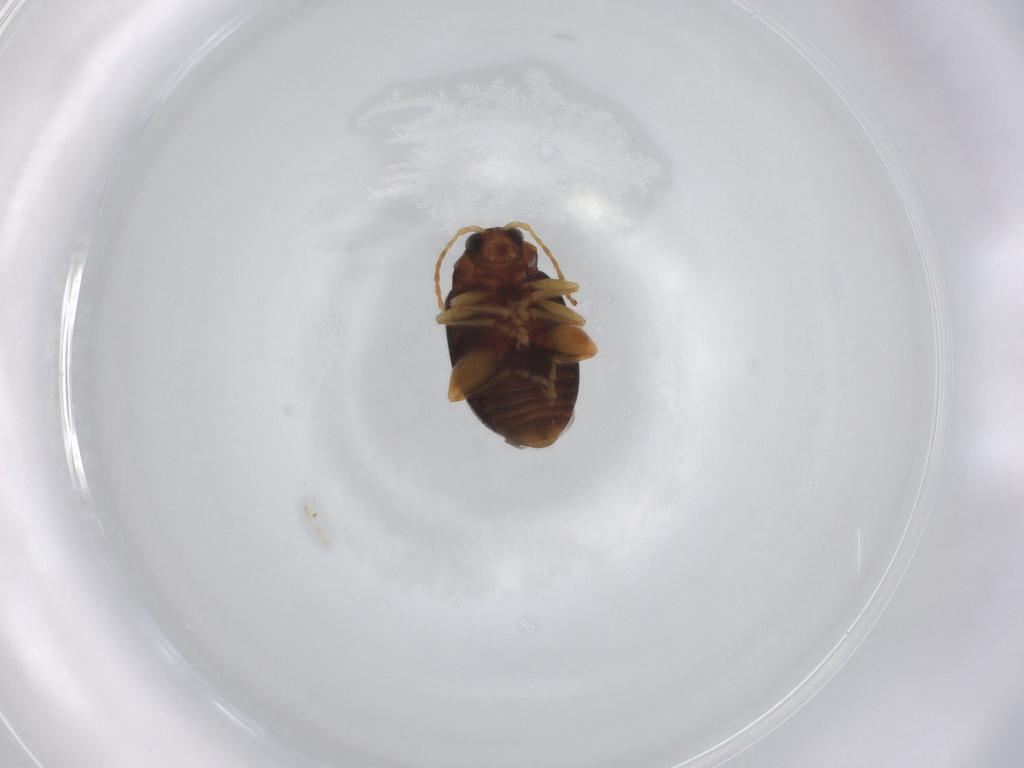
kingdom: Animalia
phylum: Arthropoda
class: Insecta
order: Coleoptera
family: Chrysomelidae
